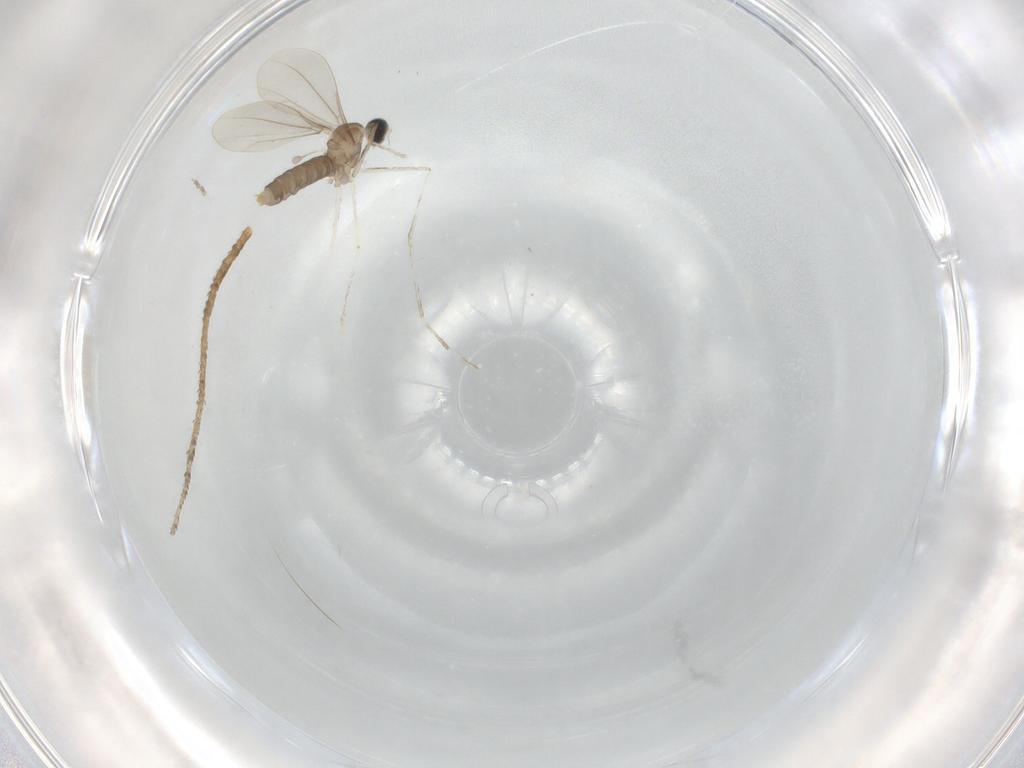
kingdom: Animalia
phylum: Arthropoda
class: Insecta
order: Diptera
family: Cecidomyiidae
